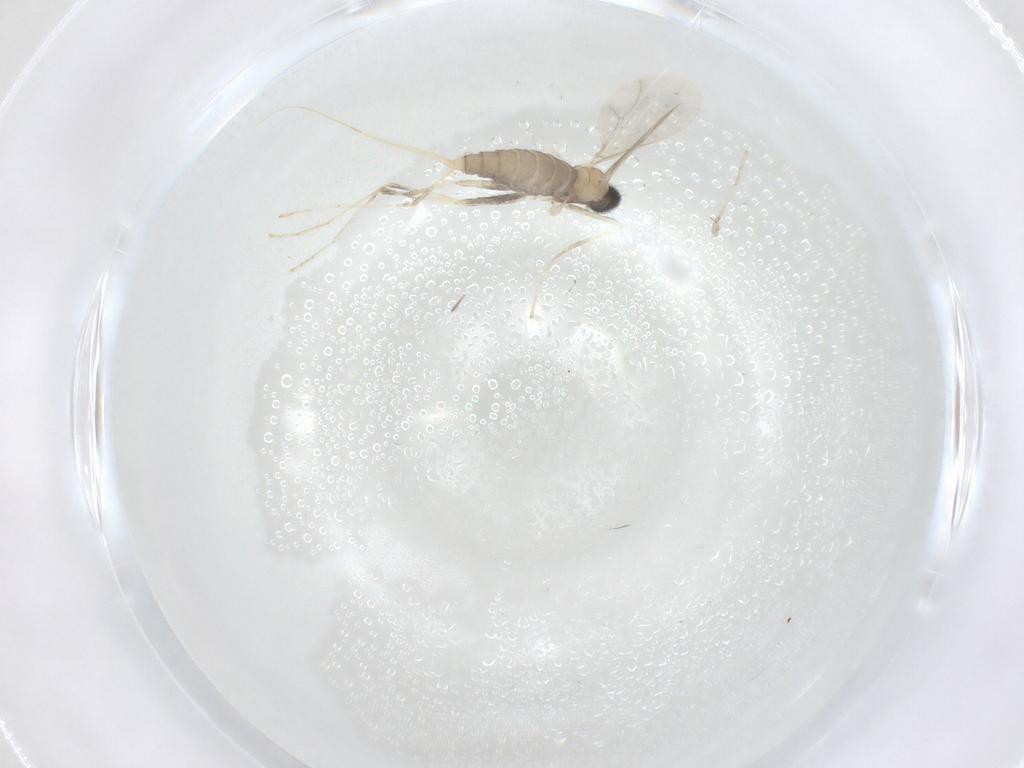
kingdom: Animalia
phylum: Arthropoda
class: Insecta
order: Diptera
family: Cecidomyiidae
